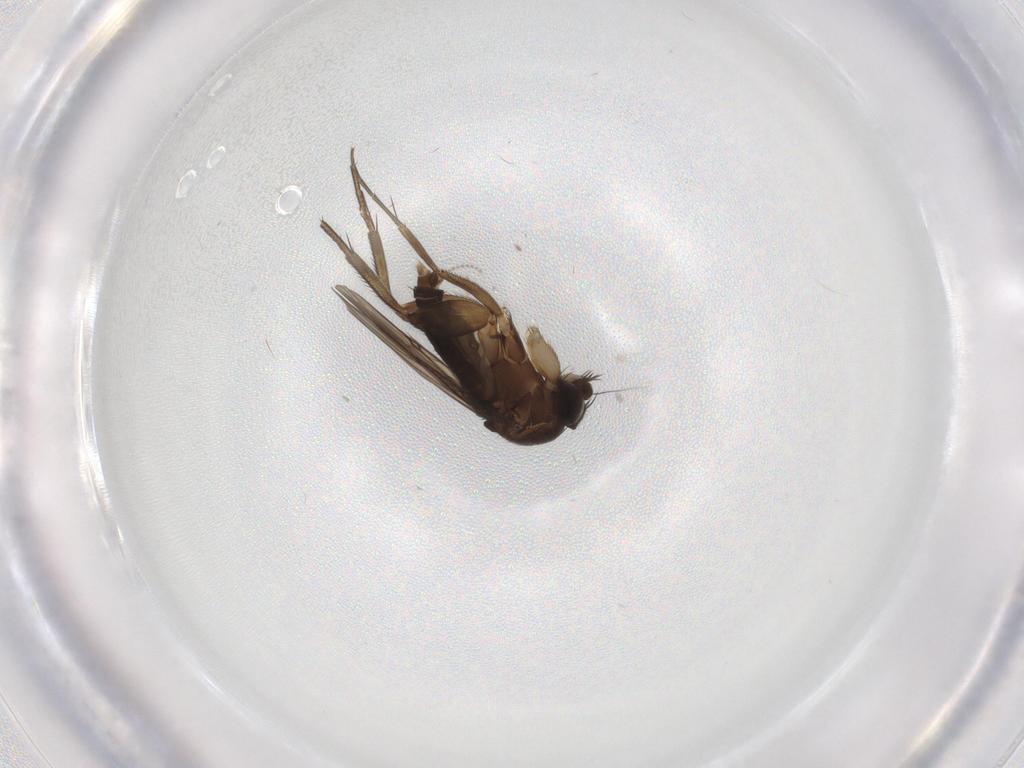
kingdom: Animalia
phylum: Arthropoda
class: Insecta
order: Diptera
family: Phoridae
